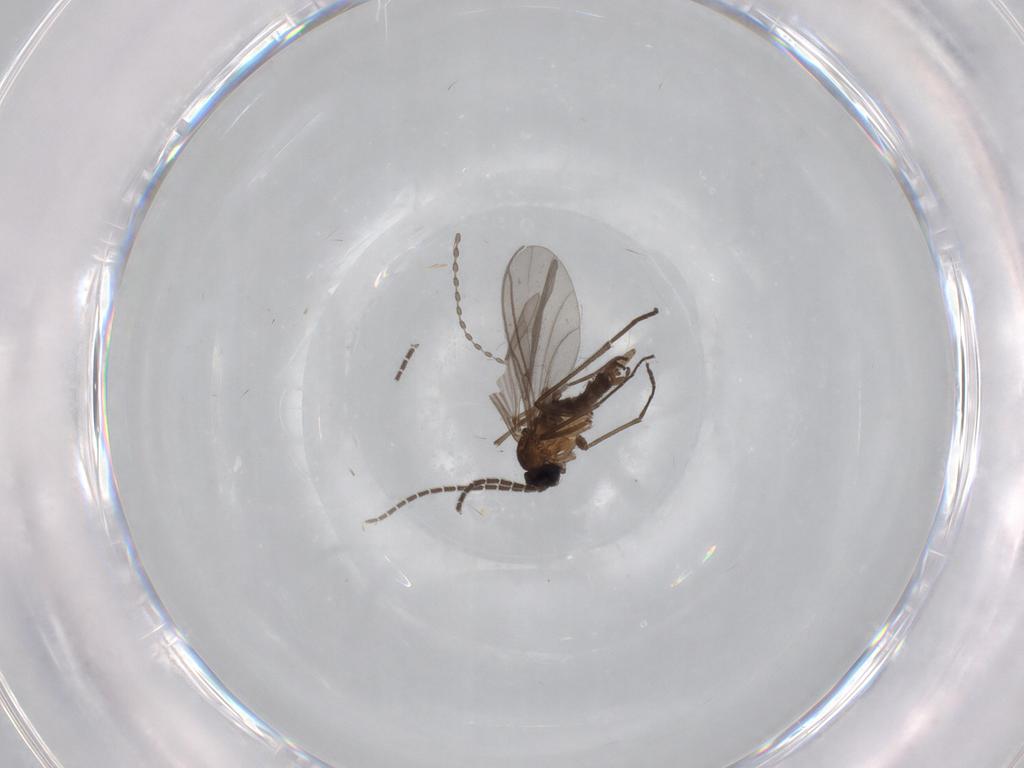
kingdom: Animalia
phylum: Arthropoda
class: Insecta
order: Diptera
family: Sciaridae
